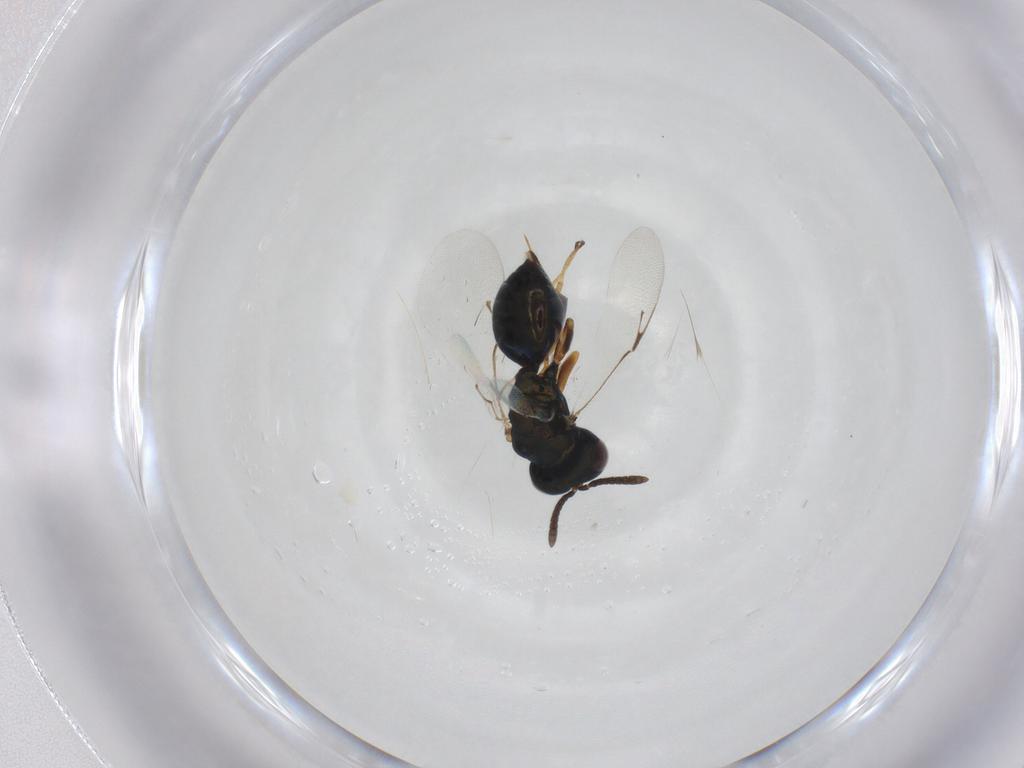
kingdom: Animalia
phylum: Arthropoda
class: Insecta
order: Hymenoptera
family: Pteromalidae
